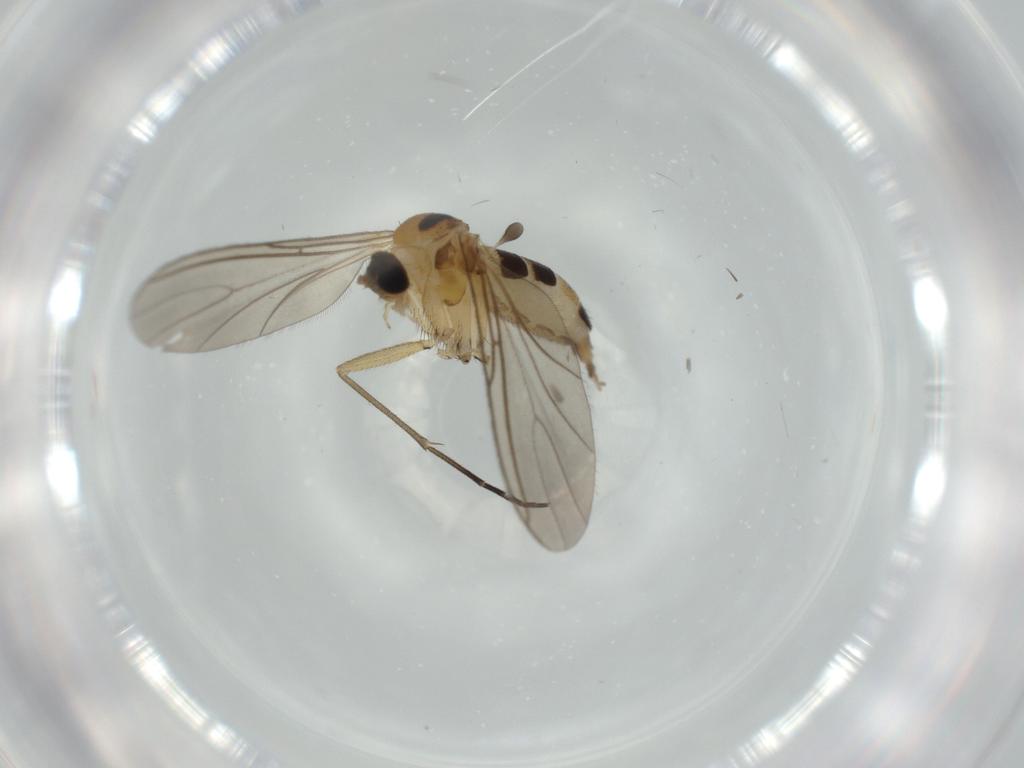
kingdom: Animalia
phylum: Arthropoda
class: Insecta
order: Diptera
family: Sciaridae
